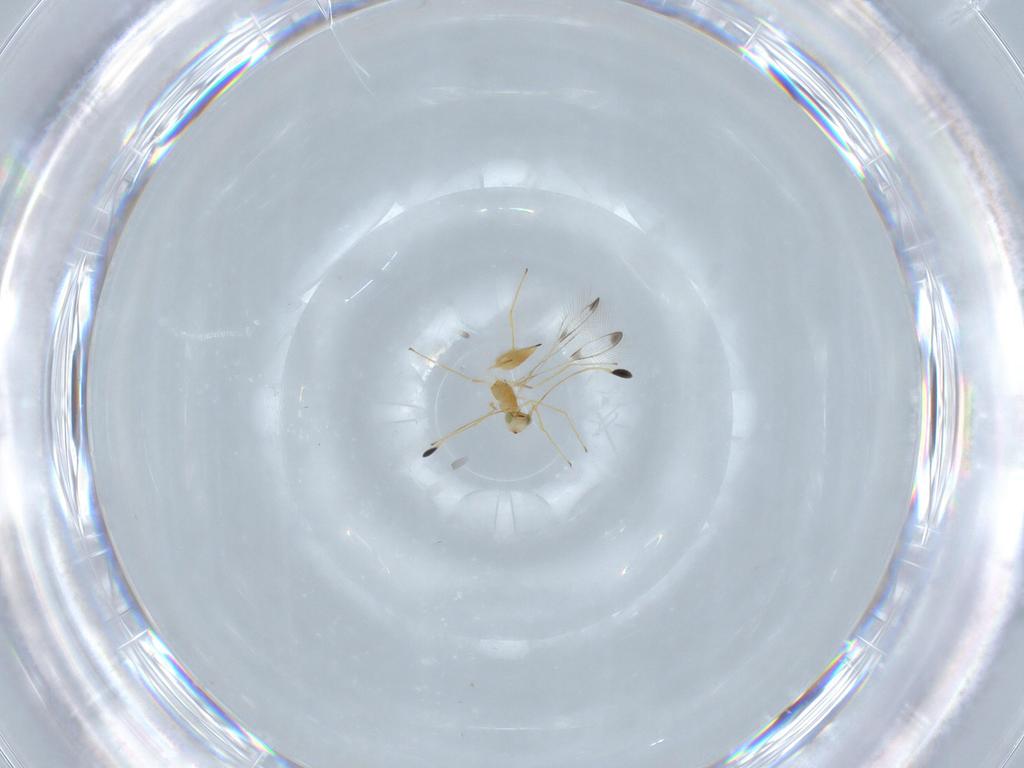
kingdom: Animalia
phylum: Arthropoda
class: Insecta
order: Hymenoptera
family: Mymaridae
